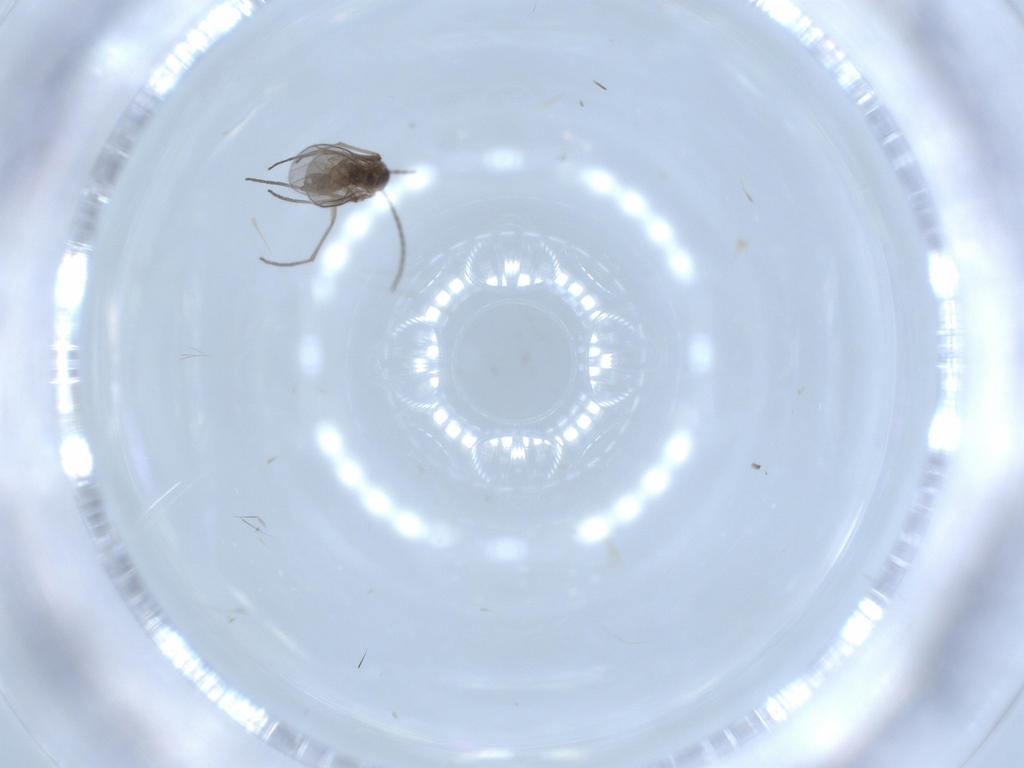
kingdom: Animalia
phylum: Arthropoda
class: Insecta
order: Diptera
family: Sciaridae
